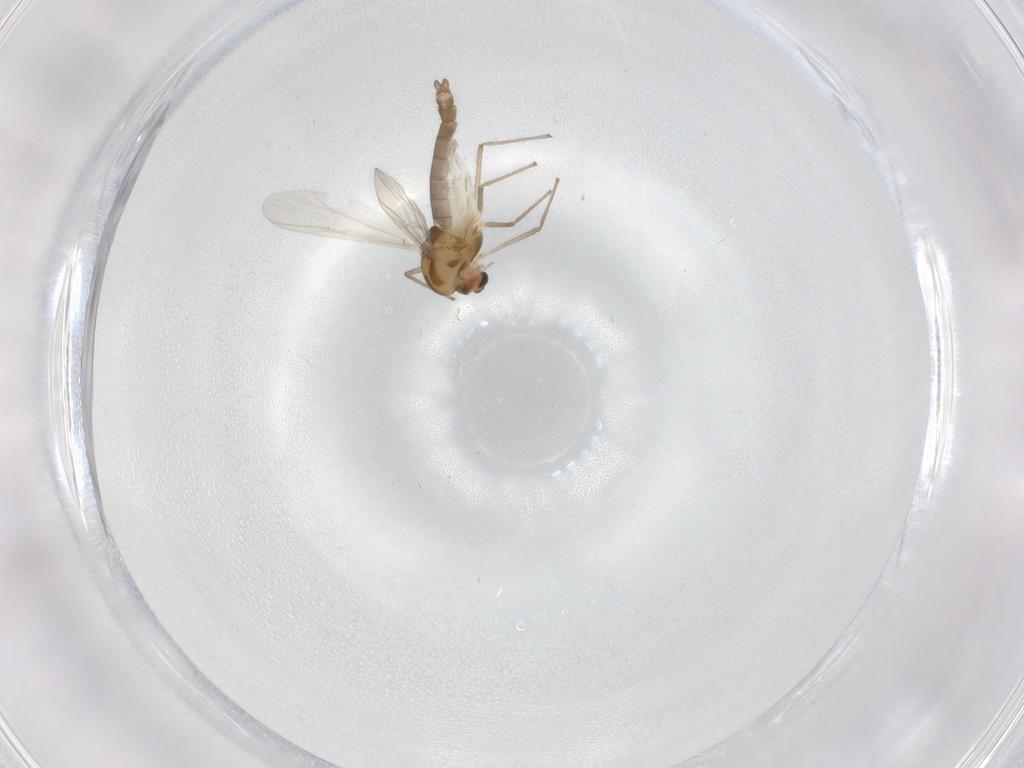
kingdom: Animalia
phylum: Arthropoda
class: Insecta
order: Diptera
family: Chironomidae
